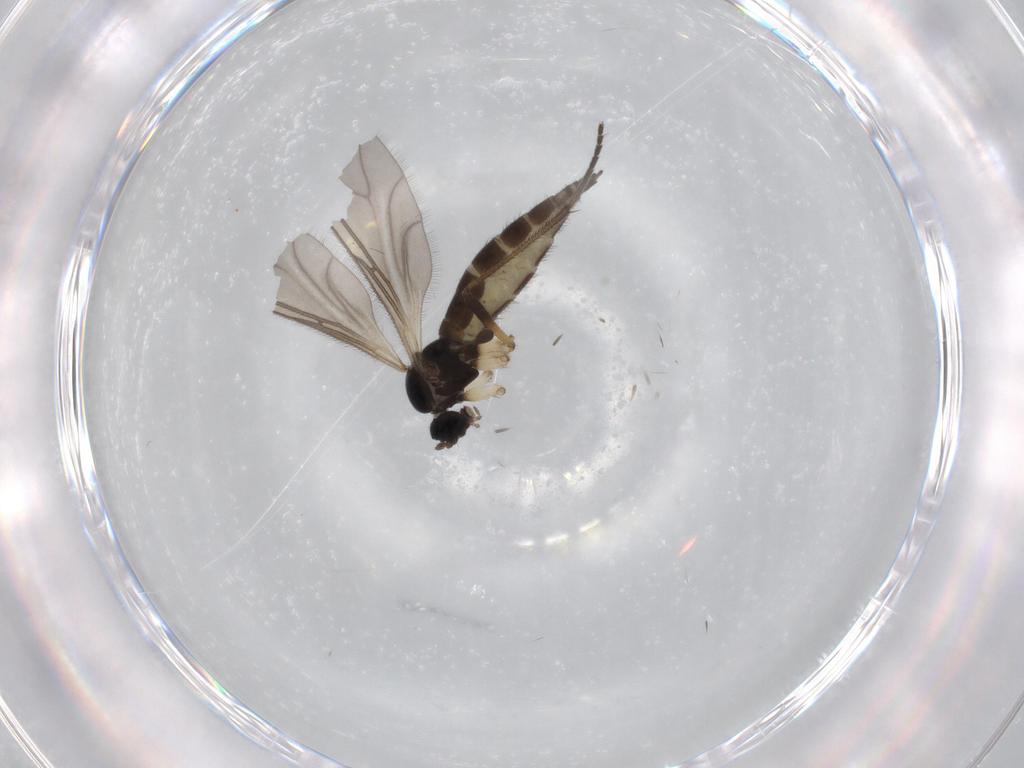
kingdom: Animalia
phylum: Arthropoda
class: Insecta
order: Diptera
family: Sciaridae
